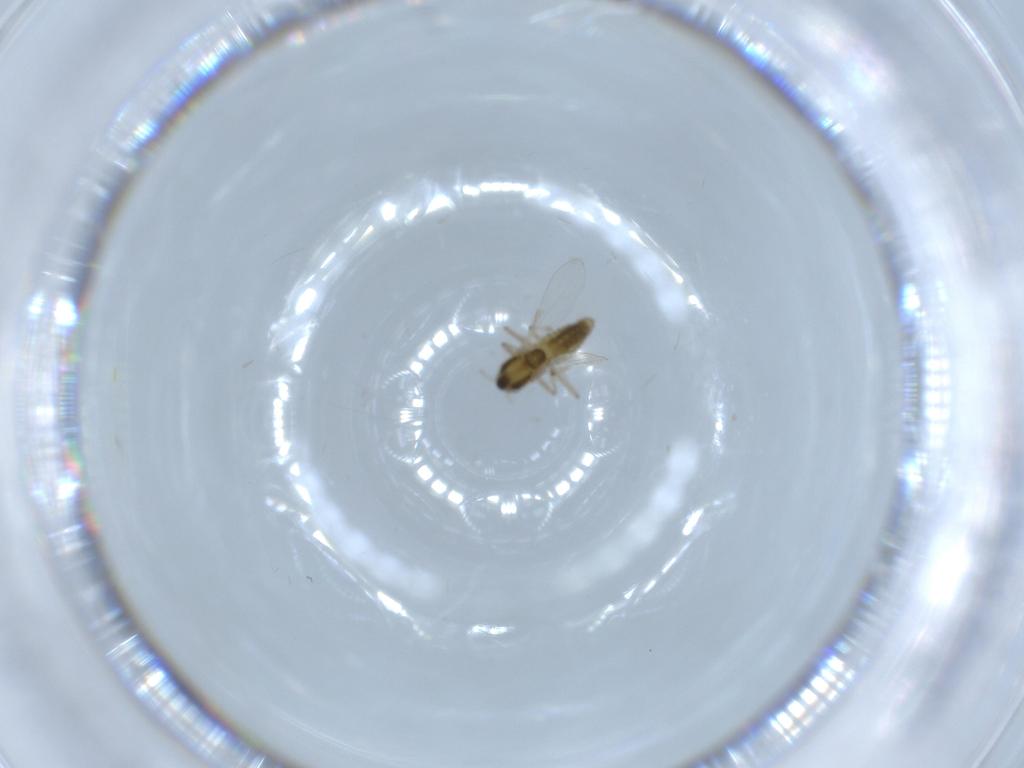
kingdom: Animalia
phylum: Arthropoda
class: Insecta
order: Diptera
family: Chironomidae
